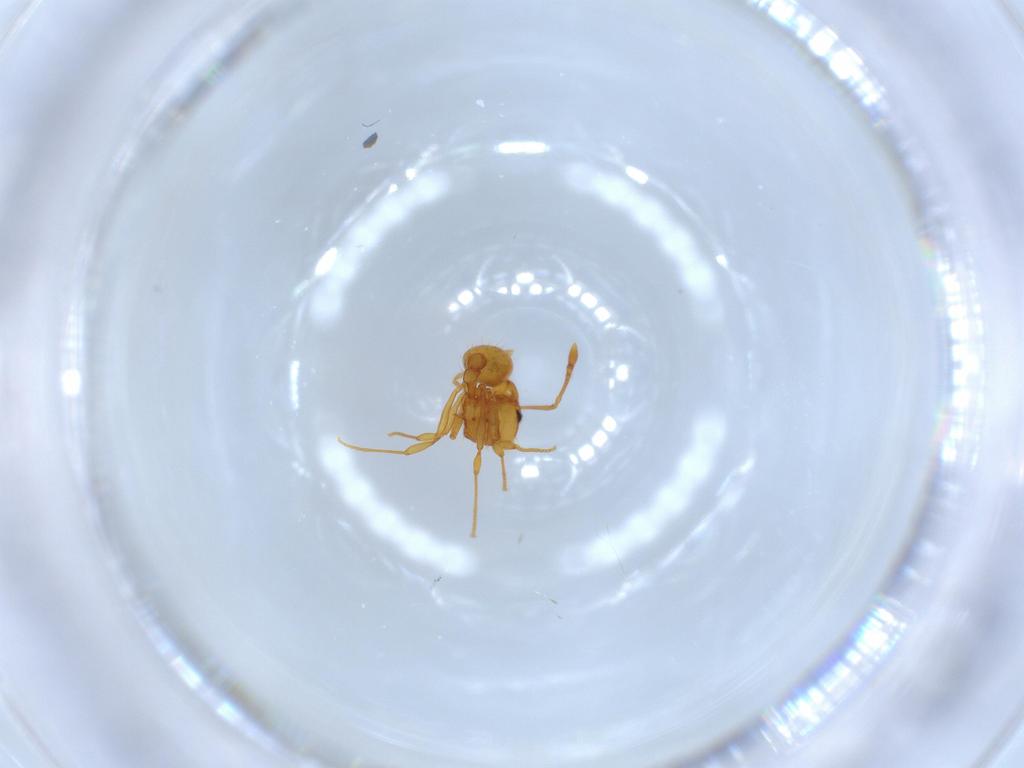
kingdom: Animalia
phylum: Arthropoda
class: Insecta
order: Hymenoptera
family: Formicidae
